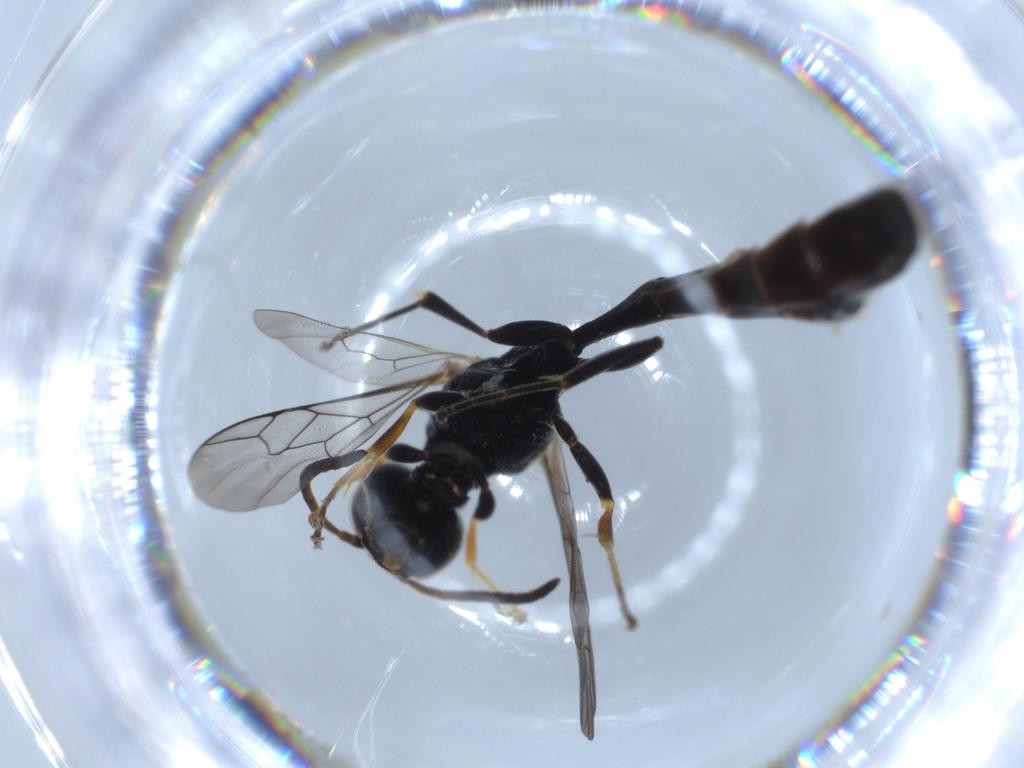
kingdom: Animalia
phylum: Arthropoda
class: Insecta
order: Hymenoptera
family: Formicidae
